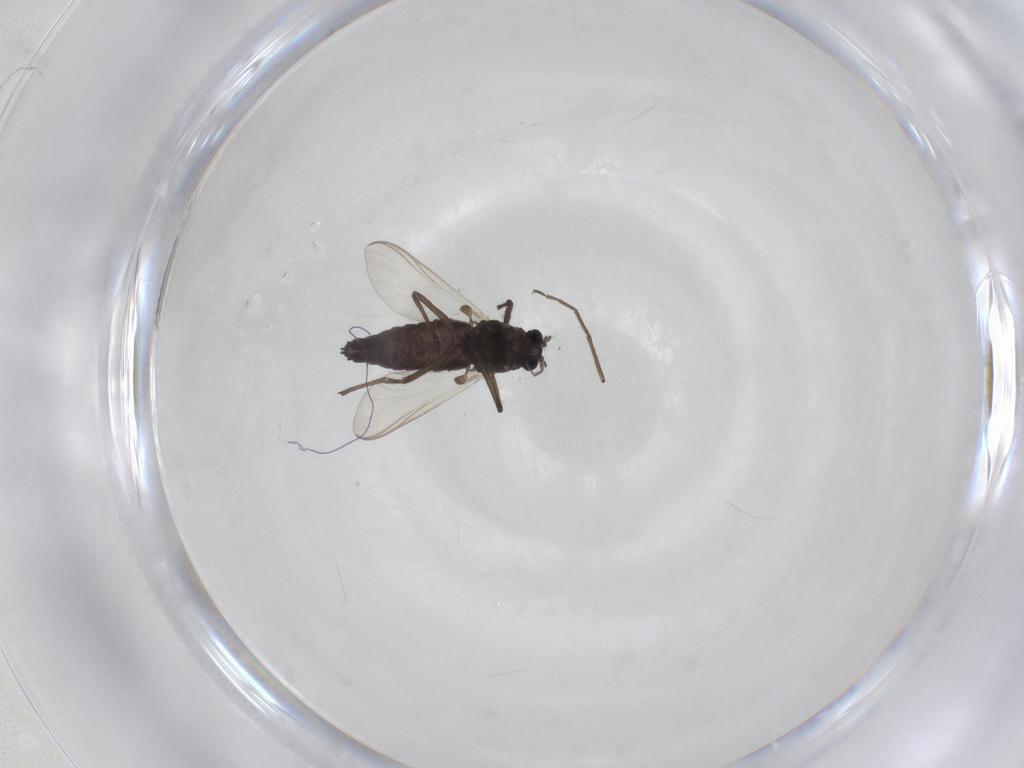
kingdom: Animalia
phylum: Arthropoda
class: Insecta
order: Diptera
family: Chironomidae
